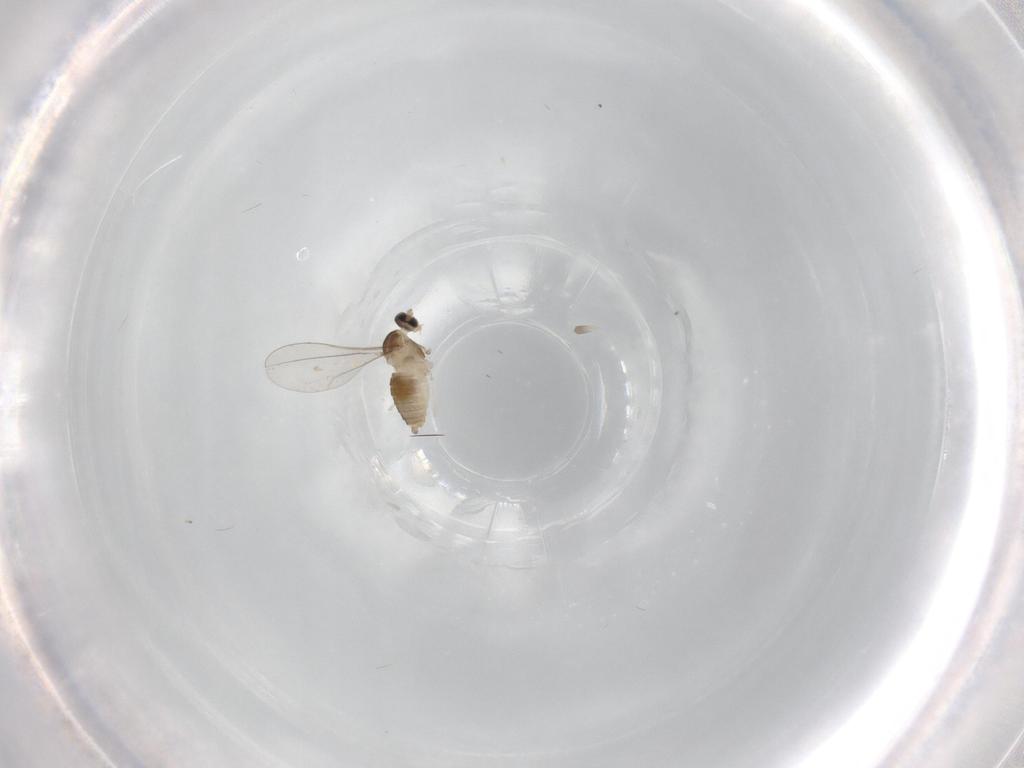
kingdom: Animalia
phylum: Arthropoda
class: Insecta
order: Diptera
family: Cecidomyiidae
